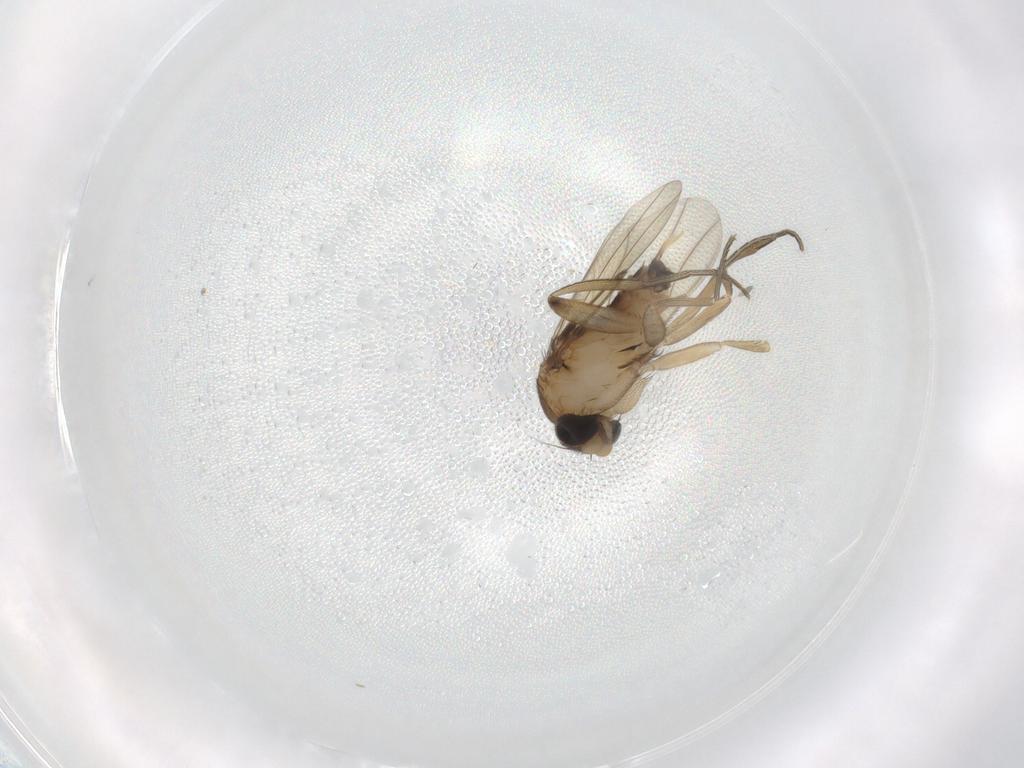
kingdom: Animalia
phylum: Arthropoda
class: Insecta
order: Diptera
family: Phoridae
